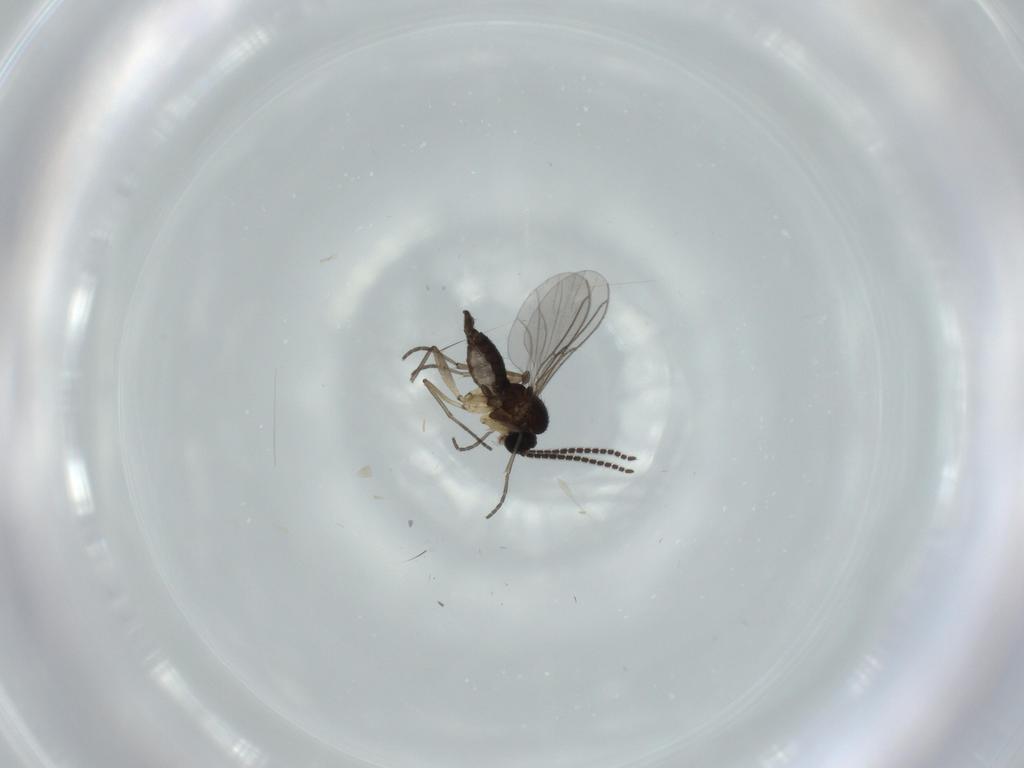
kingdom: Animalia
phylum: Arthropoda
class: Insecta
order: Diptera
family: Sciaridae
